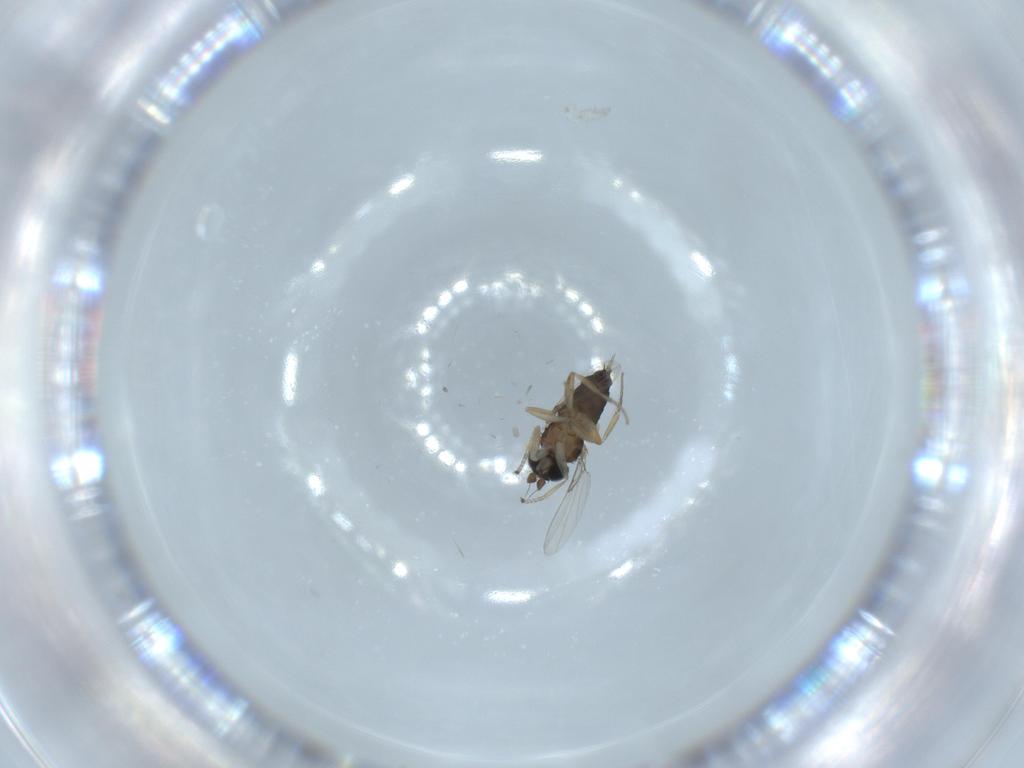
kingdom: Animalia
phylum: Arthropoda
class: Insecta
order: Diptera
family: Phoridae
